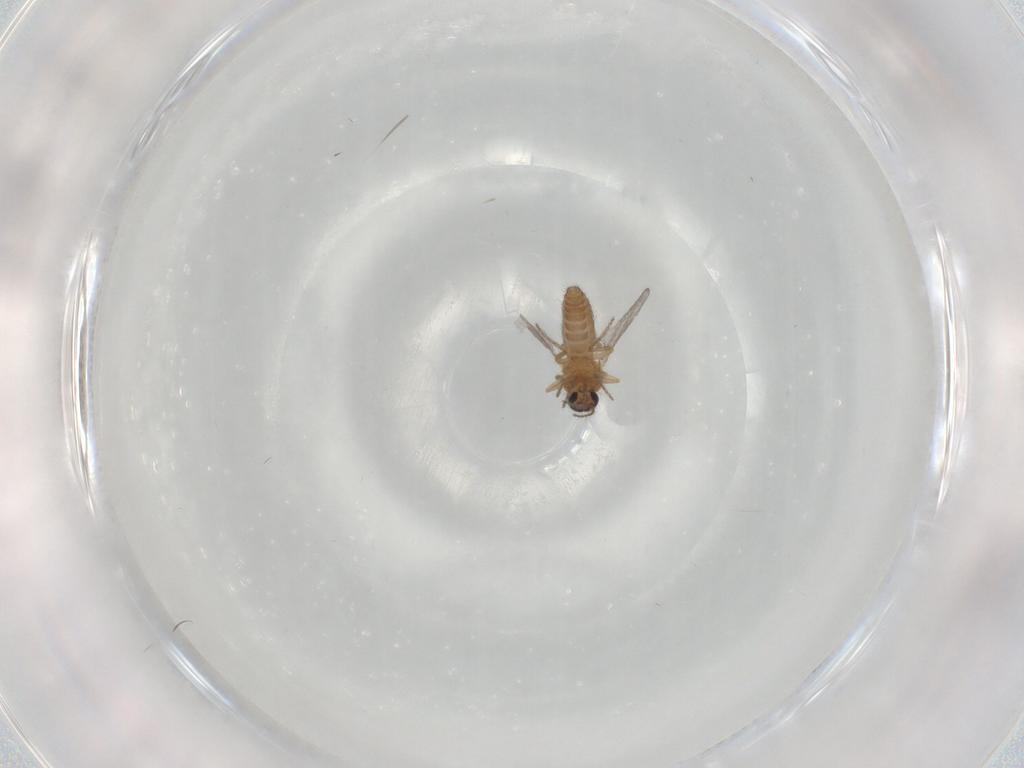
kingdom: Animalia
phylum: Arthropoda
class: Insecta
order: Diptera
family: Ceratopogonidae
